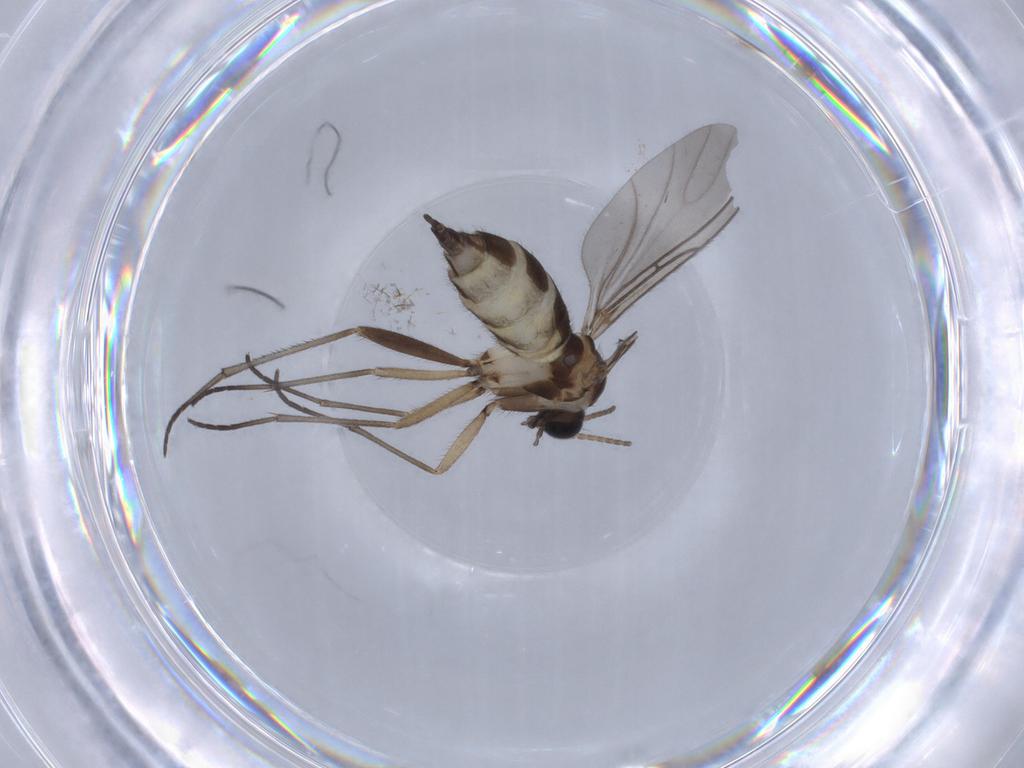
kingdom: Animalia
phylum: Arthropoda
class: Insecta
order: Diptera
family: Sciaridae
